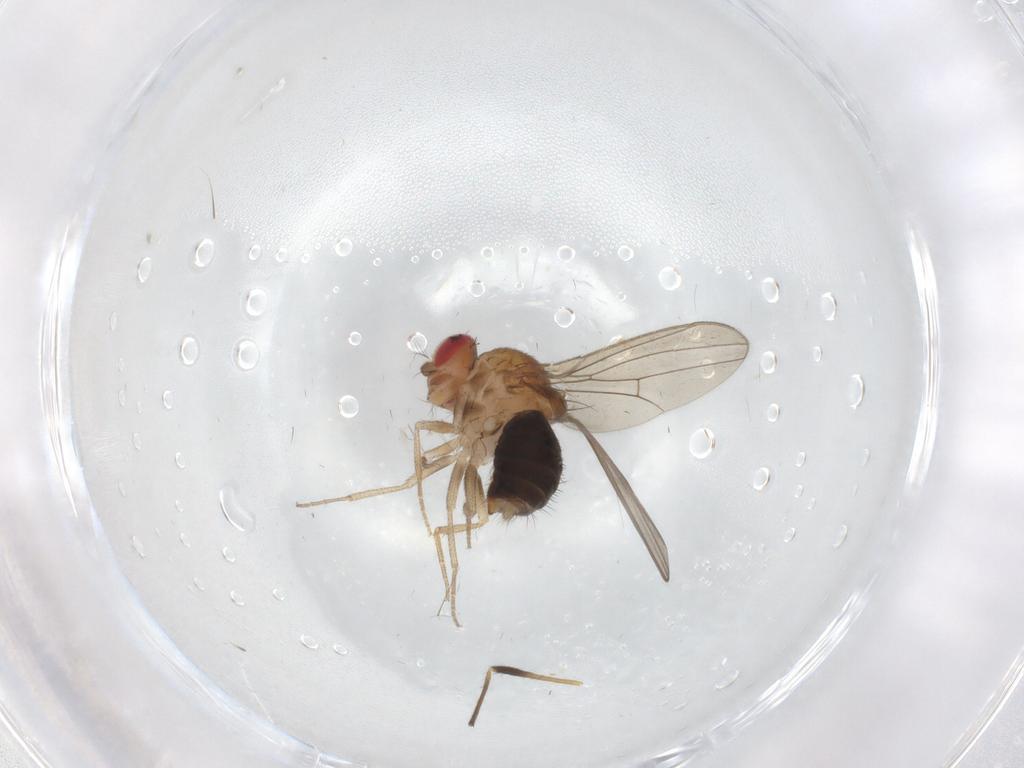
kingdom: Animalia
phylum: Arthropoda
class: Insecta
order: Diptera
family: Drosophilidae
